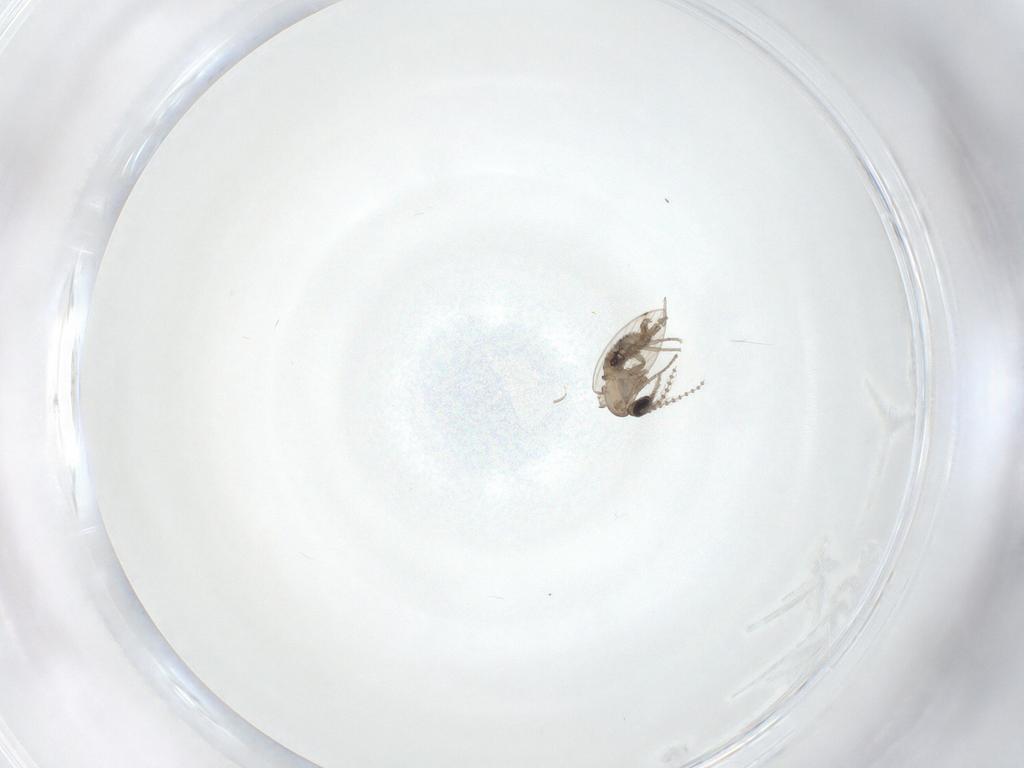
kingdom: Animalia
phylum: Arthropoda
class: Insecta
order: Diptera
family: Psychodidae
